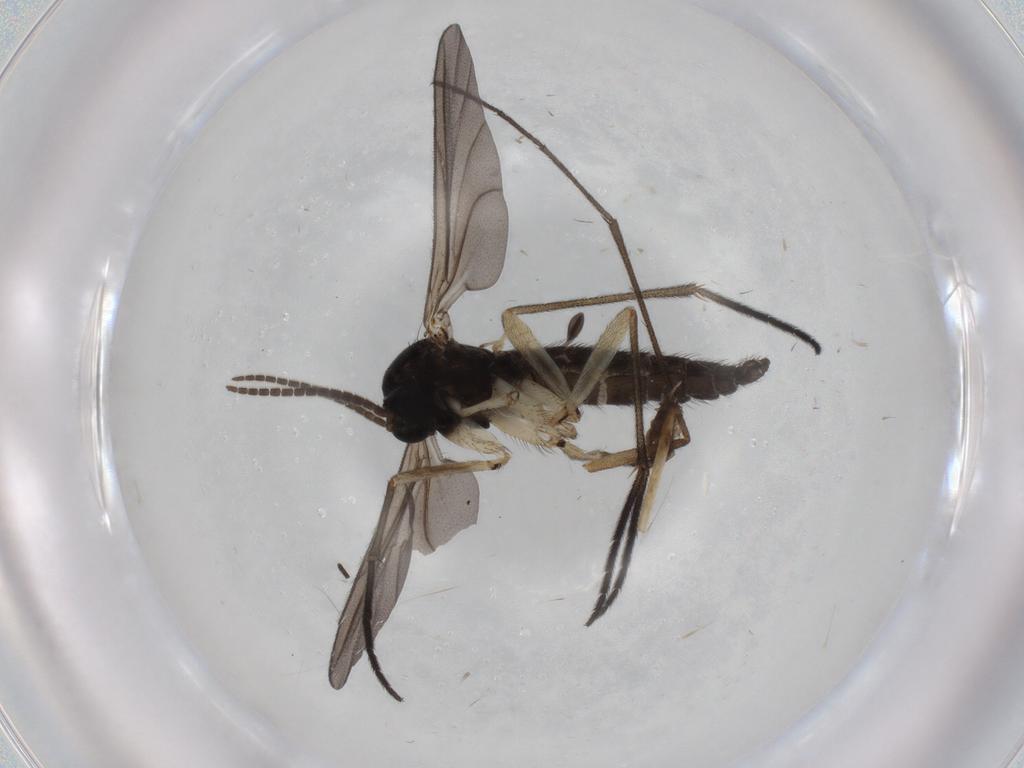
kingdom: Animalia
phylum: Arthropoda
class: Insecta
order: Diptera
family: Sciaridae
